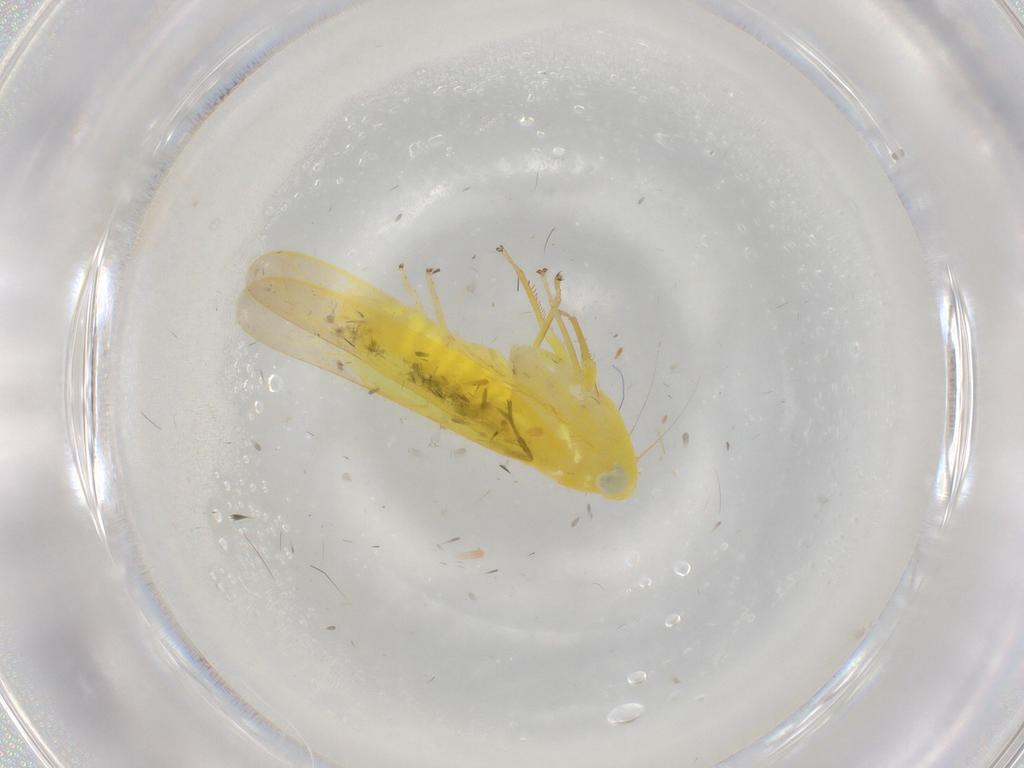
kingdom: Animalia
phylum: Arthropoda
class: Insecta
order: Hemiptera
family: Cicadellidae
